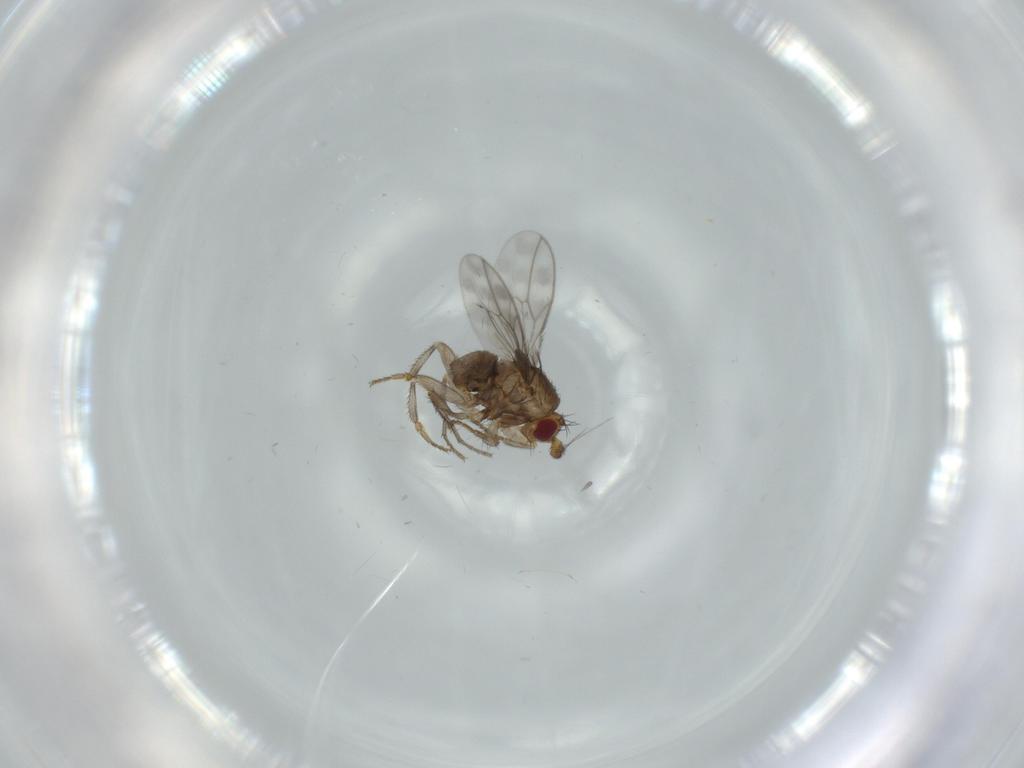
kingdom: Animalia
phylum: Arthropoda
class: Insecta
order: Diptera
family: Sphaeroceridae
